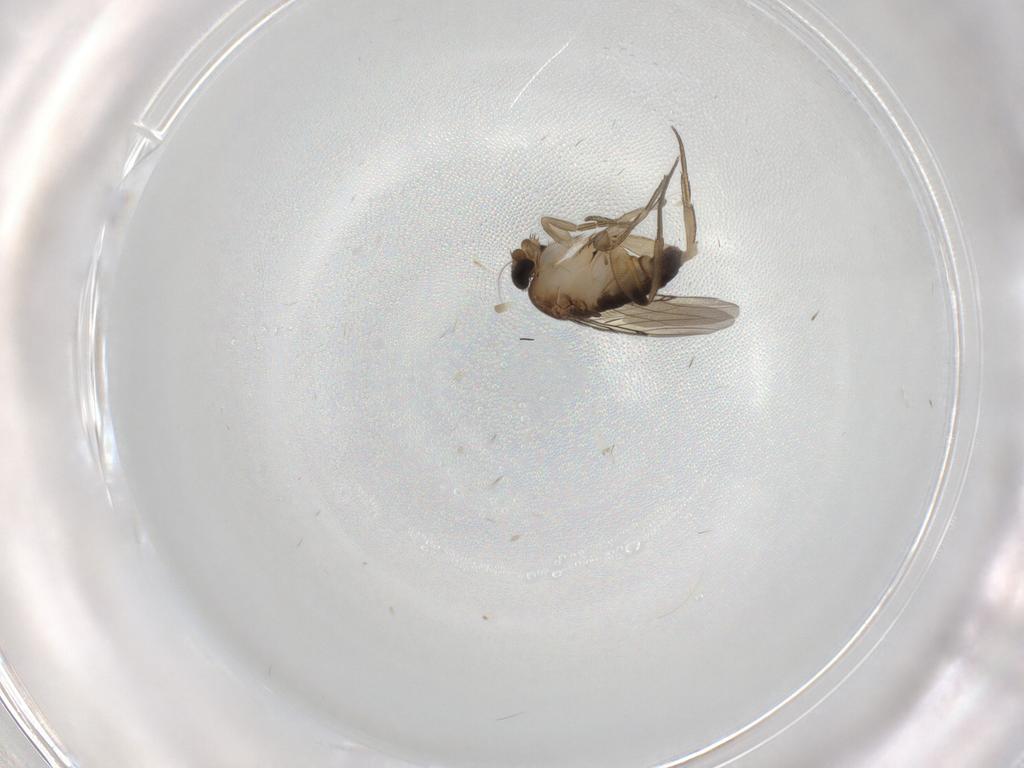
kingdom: Animalia
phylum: Arthropoda
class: Insecta
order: Diptera
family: Phoridae
